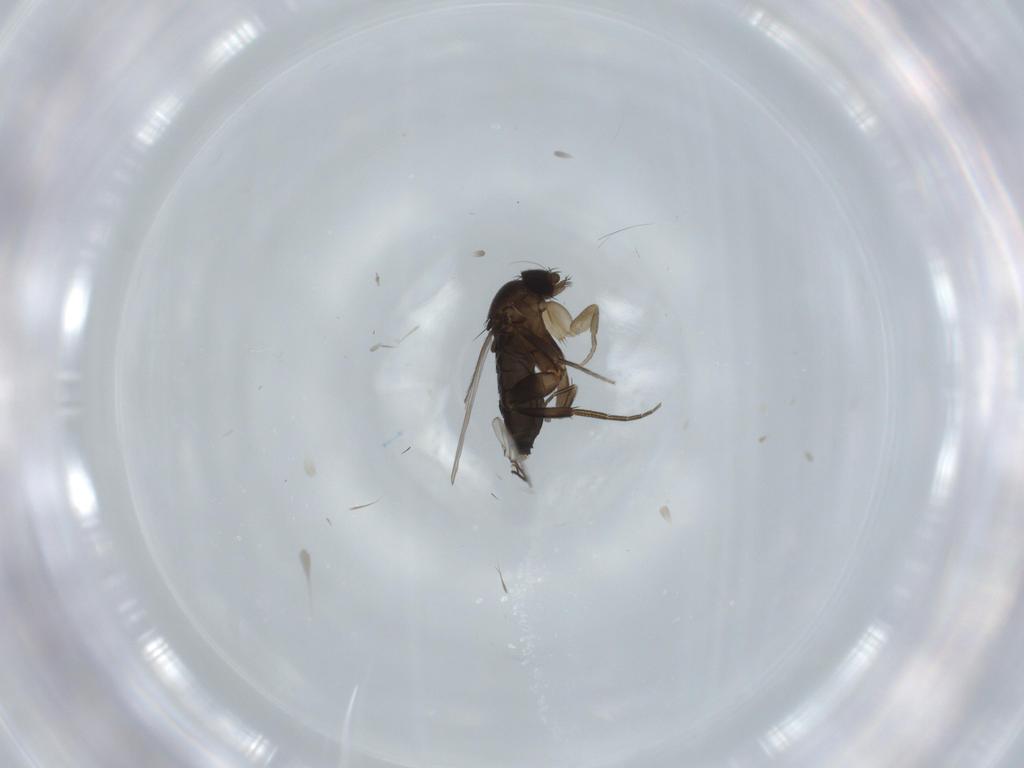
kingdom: Animalia
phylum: Arthropoda
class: Insecta
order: Diptera
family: Phoridae
